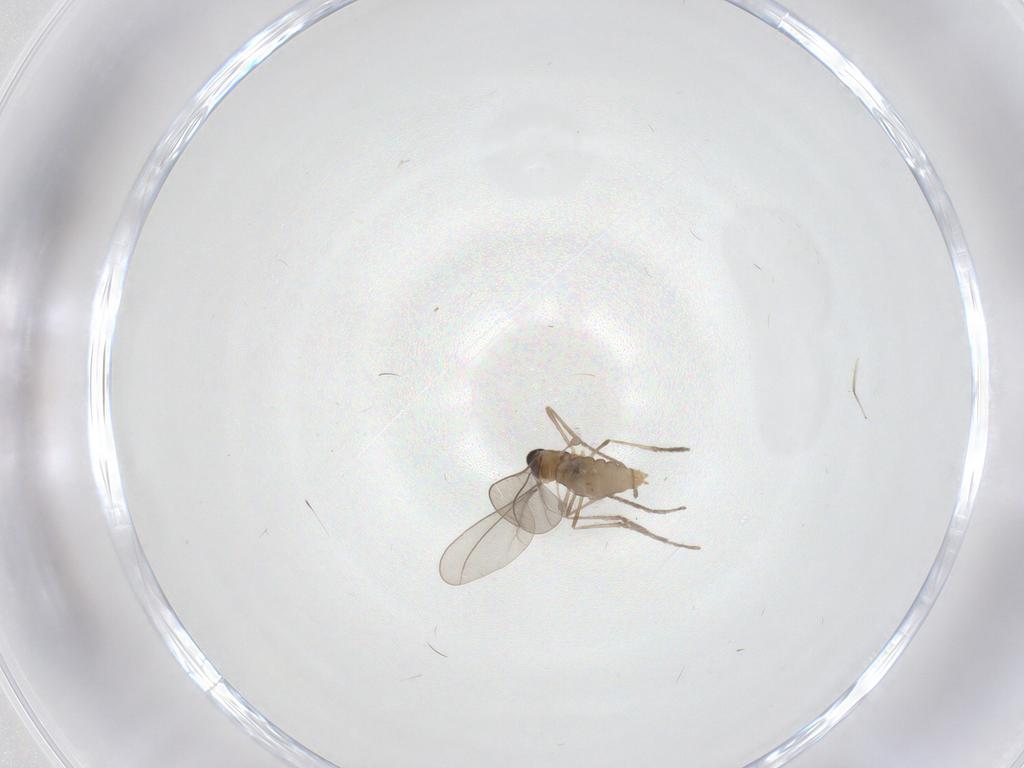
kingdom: Animalia
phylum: Arthropoda
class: Insecta
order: Diptera
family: Cecidomyiidae
